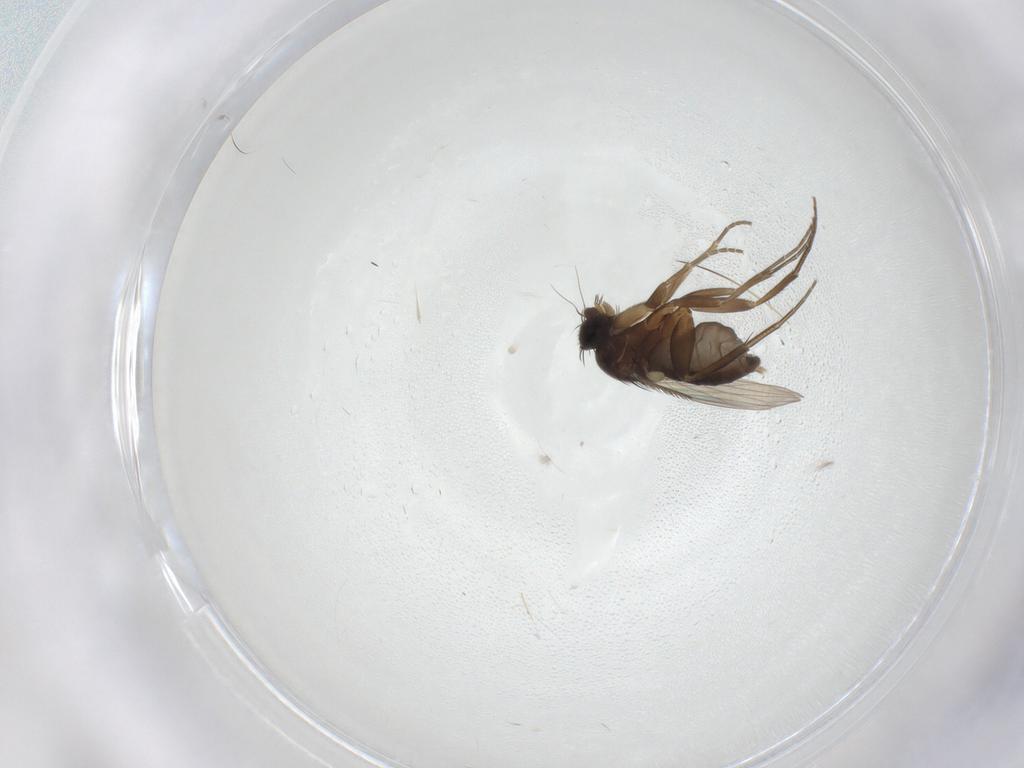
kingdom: Animalia
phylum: Arthropoda
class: Insecta
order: Diptera
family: Phoridae
